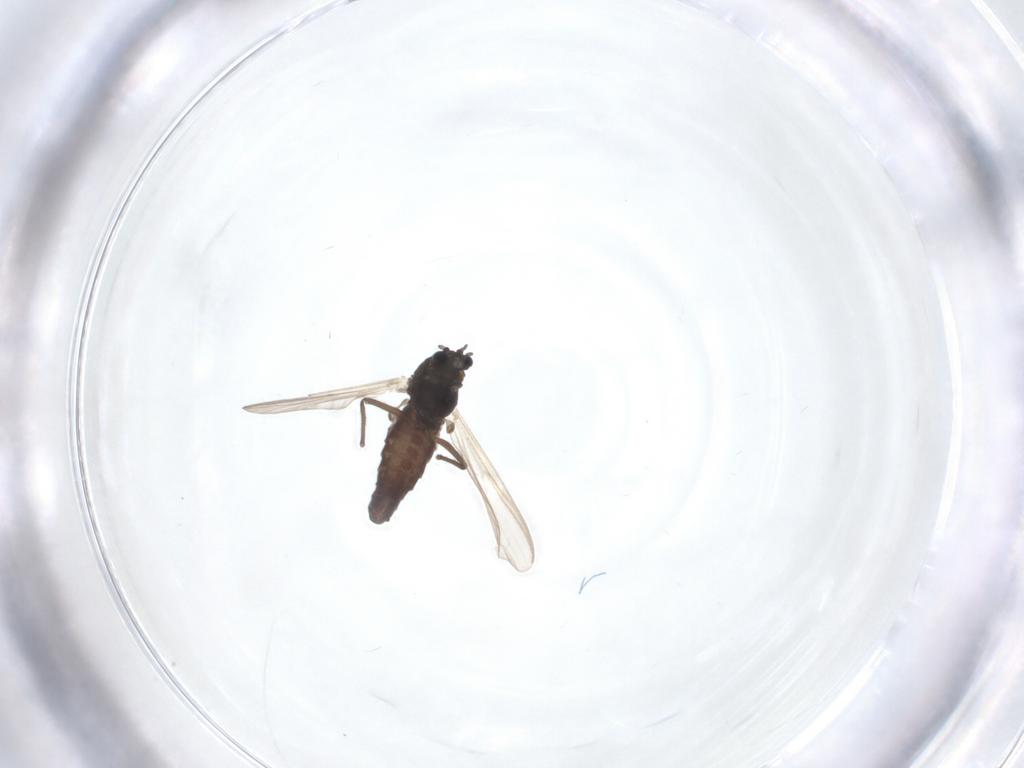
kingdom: Animalia
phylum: Arthropoda
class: Insecta
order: Diptera
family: Chironomidae
